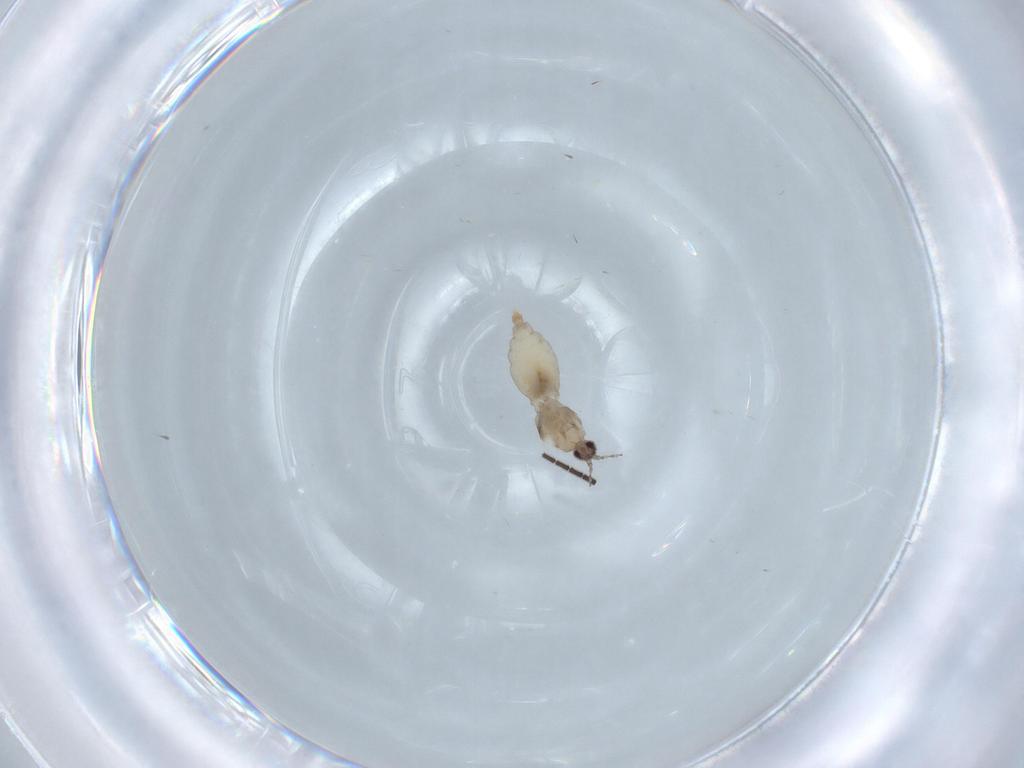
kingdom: Animalia
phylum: Arthropoda
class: Insecta
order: Diptera
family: Cecidomyiidae
